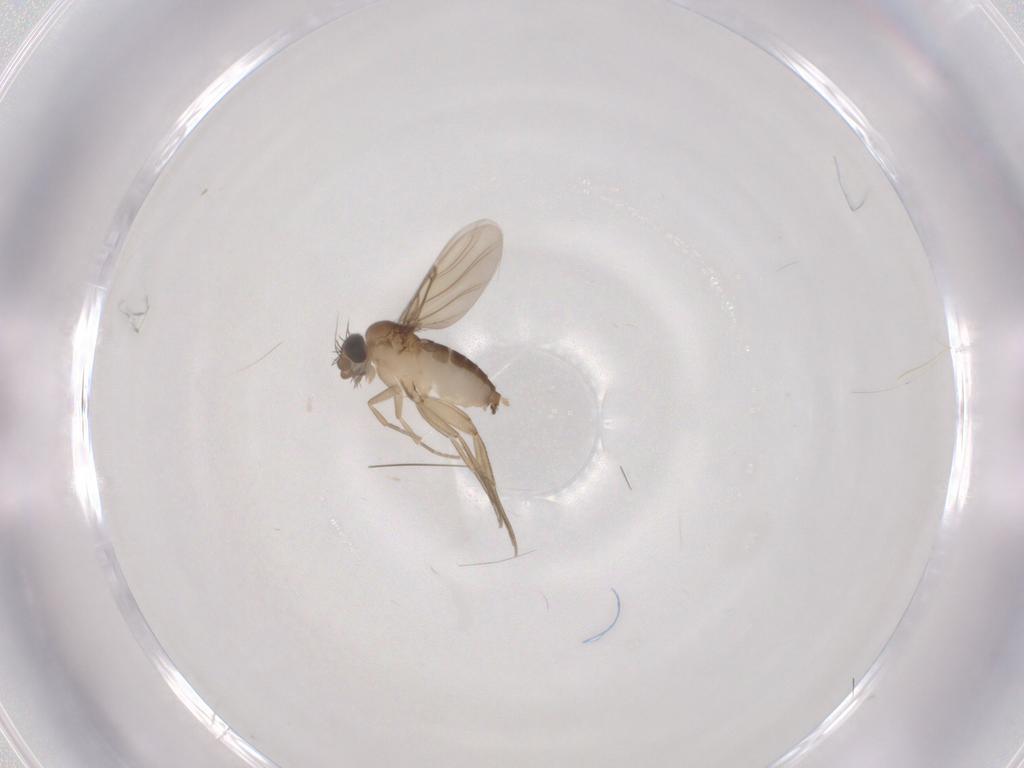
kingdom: Animalia
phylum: Arthropoda
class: Insecta
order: Diptera
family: Phoridae
